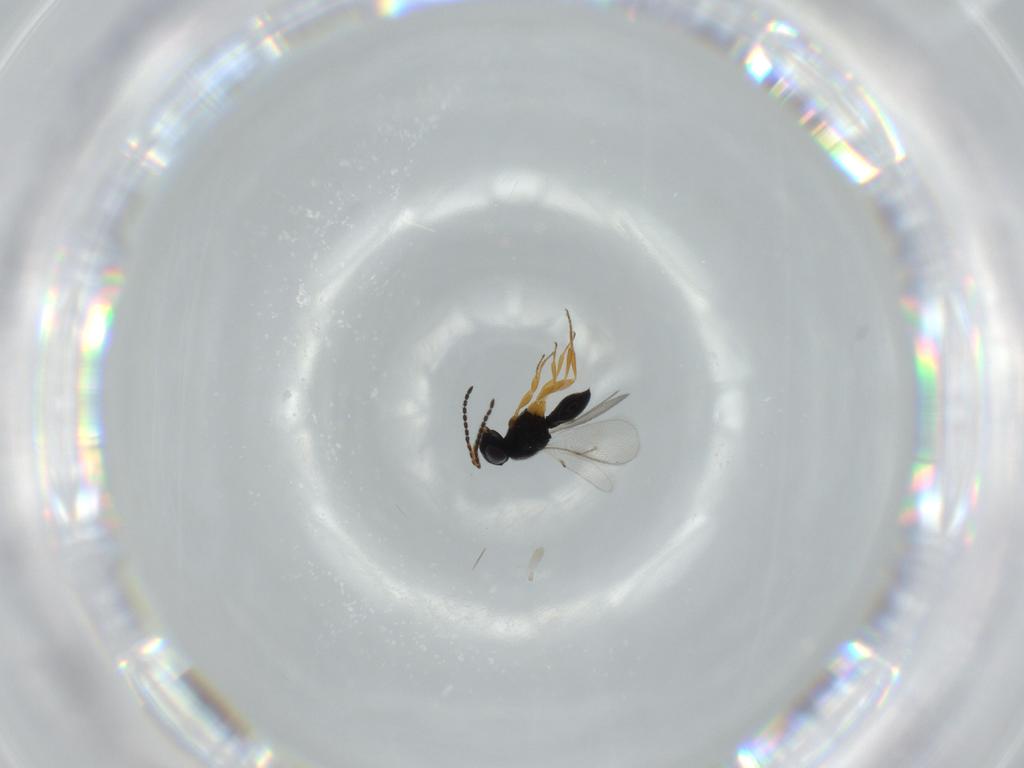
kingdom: Animalia
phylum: Arthropoda
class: Insecta
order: Hymenoptera
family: Scelionidae
